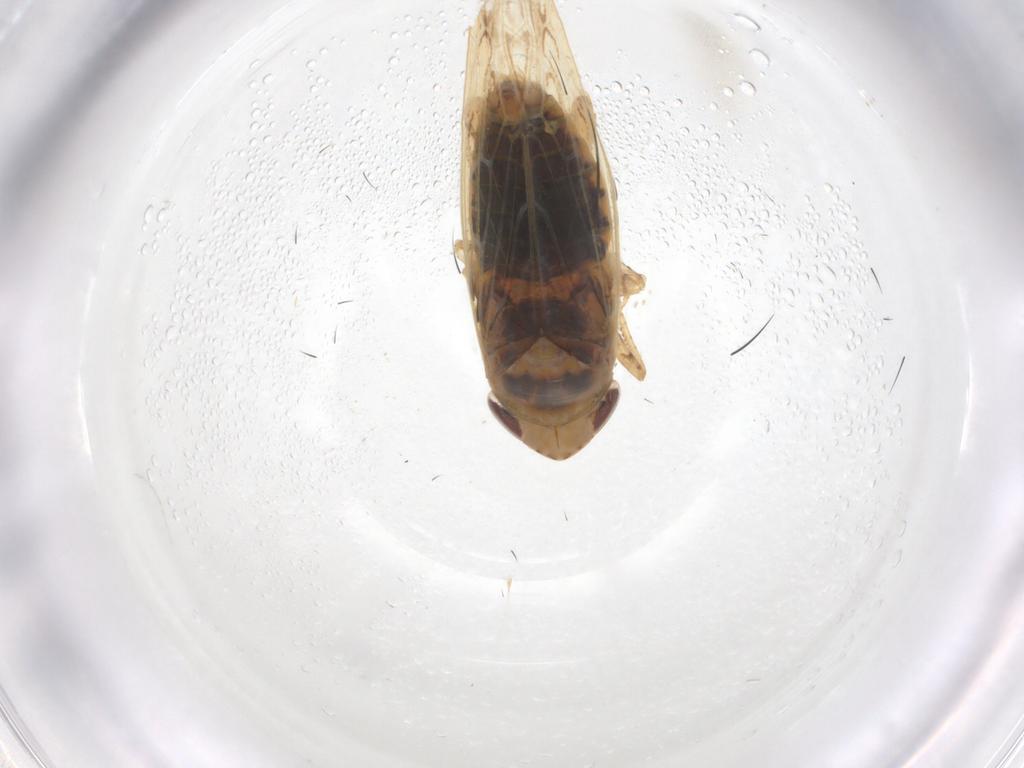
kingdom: Animalia
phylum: Arthropoda
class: Insecta
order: Hemiptera
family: Cicadellidae
